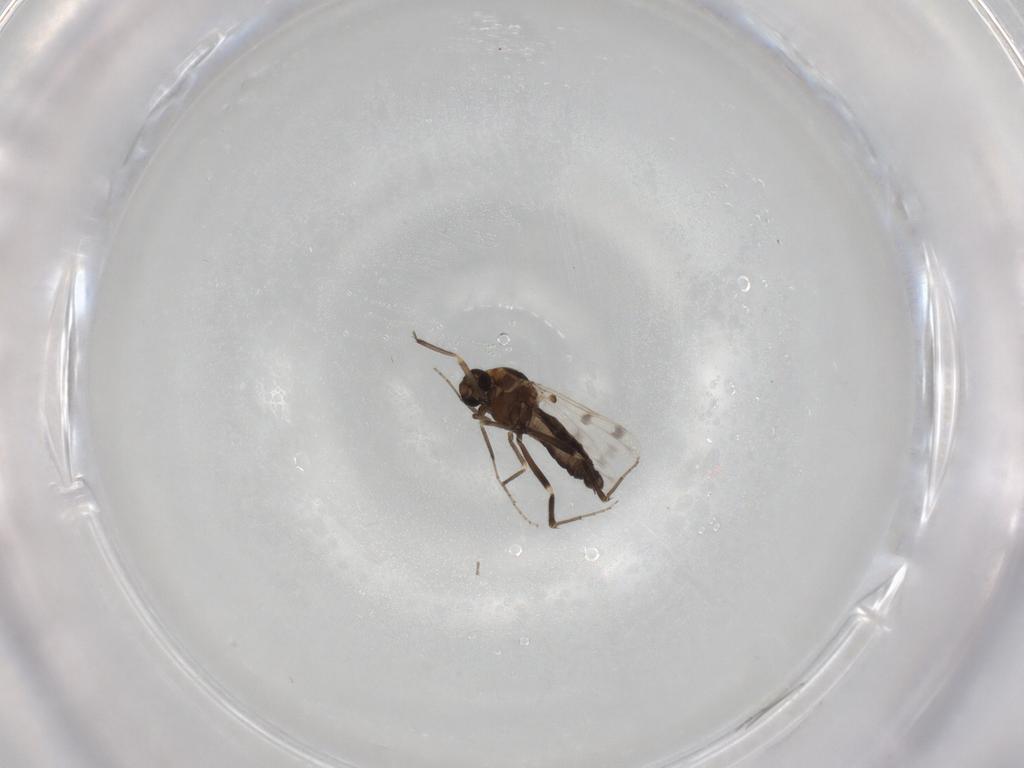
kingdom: Animalia
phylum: Arthropoda
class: Insecta
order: Diptera
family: Ceratopogonidae
